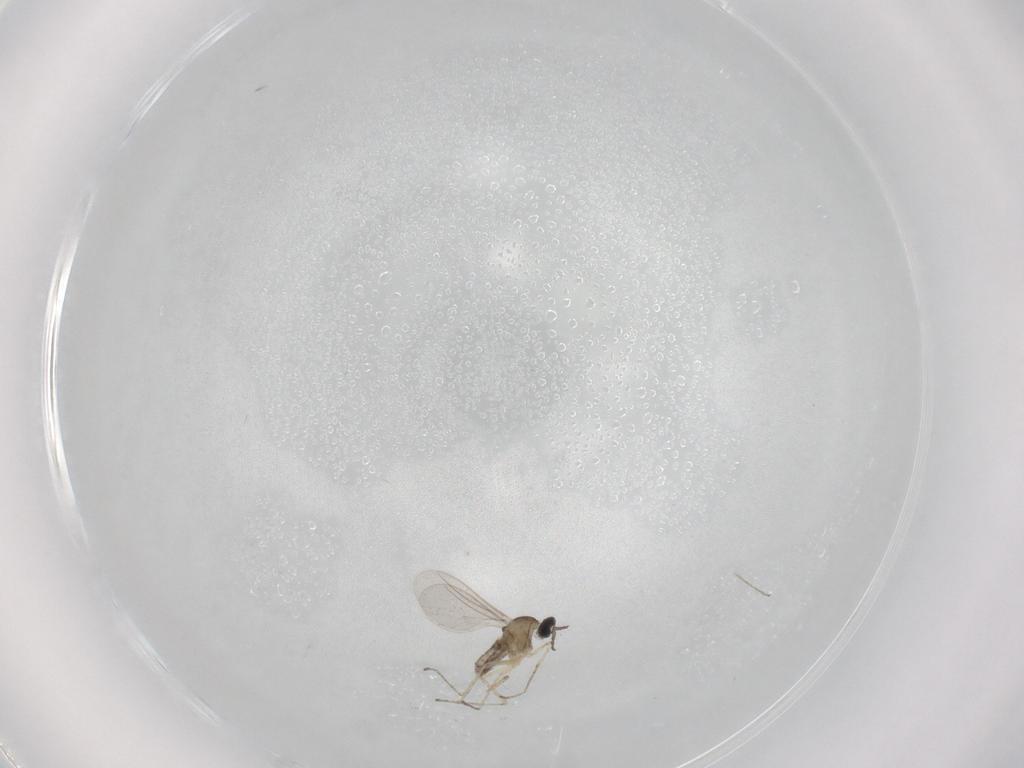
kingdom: Animalia
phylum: Arthropoda
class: Insecta
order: Diptera
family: Cecidomyiidae
